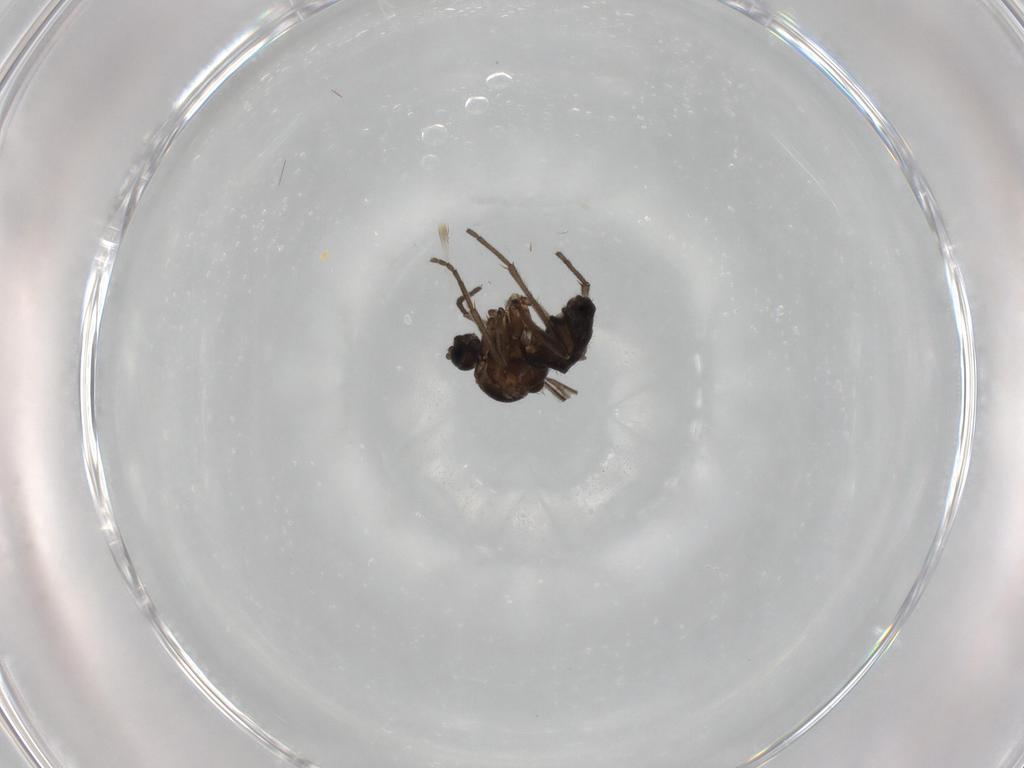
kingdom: Animalia
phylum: Arthropoda
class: Insecta
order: Diptera
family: Sciaridae
